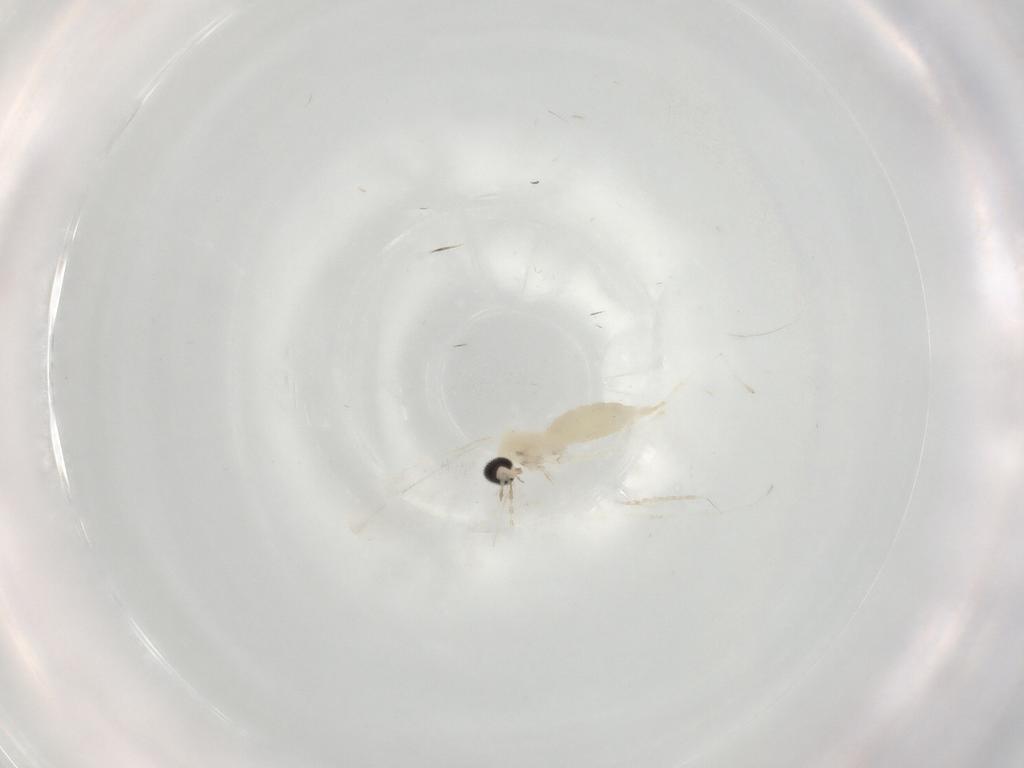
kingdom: Animalia
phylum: Arthropoda
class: Insecta
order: Diptera
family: Cecidomyiidae
